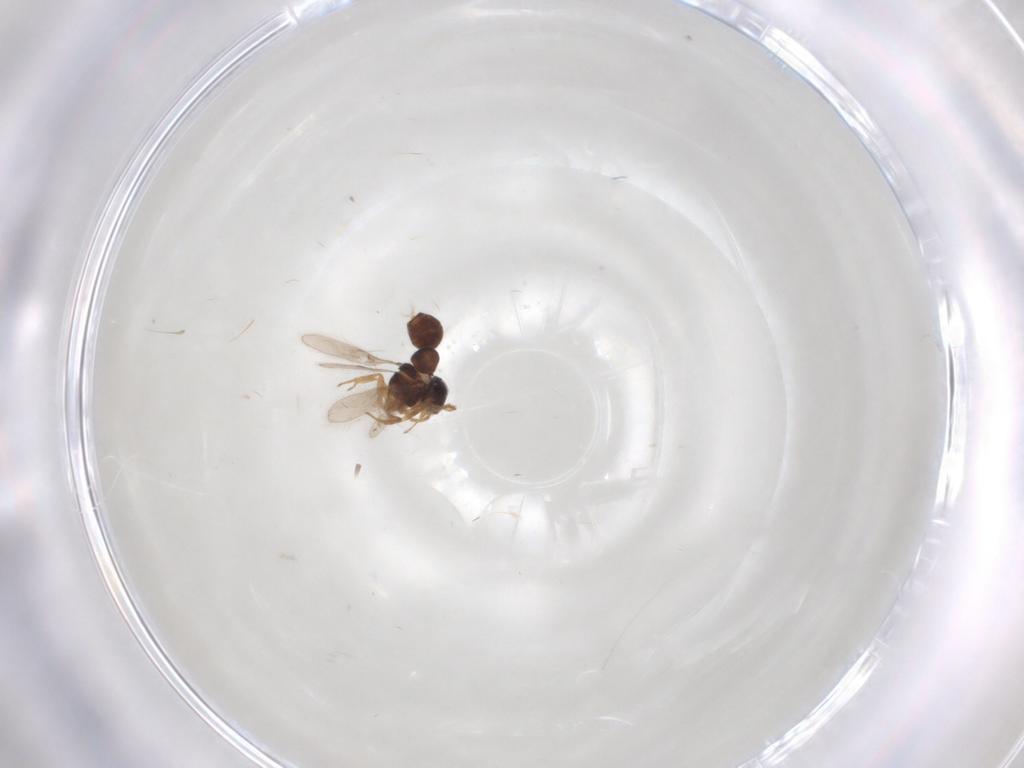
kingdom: Animalia
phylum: Arthropoda
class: Insecta
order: Hymenoptera
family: Scelionidae
